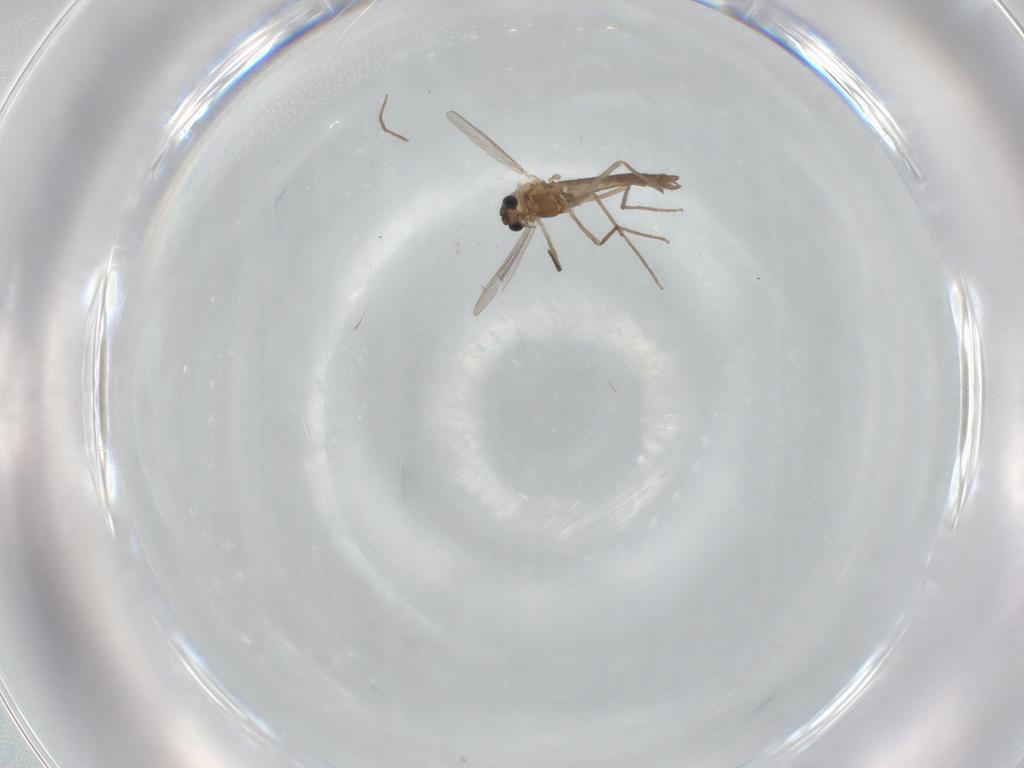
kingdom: Animalia
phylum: Arthropoda
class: Insecta
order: Diptera
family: Chironomidae
